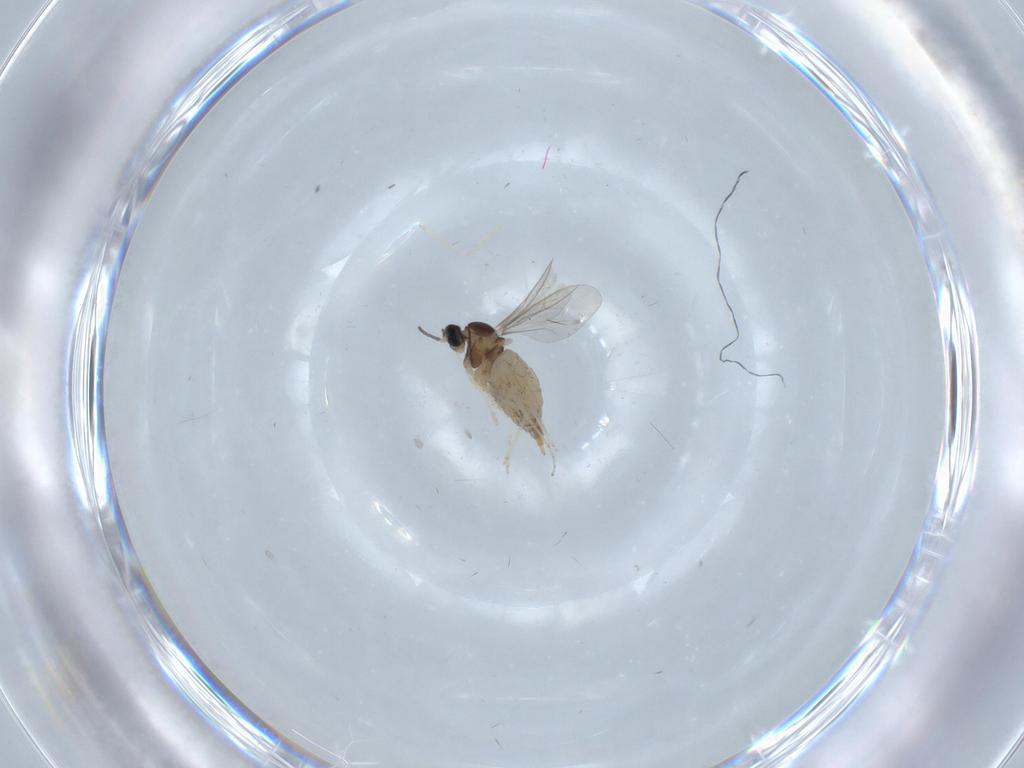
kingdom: Animalia
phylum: Arthropoda
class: Insecta
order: Diptera
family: Cecidomyiidae
